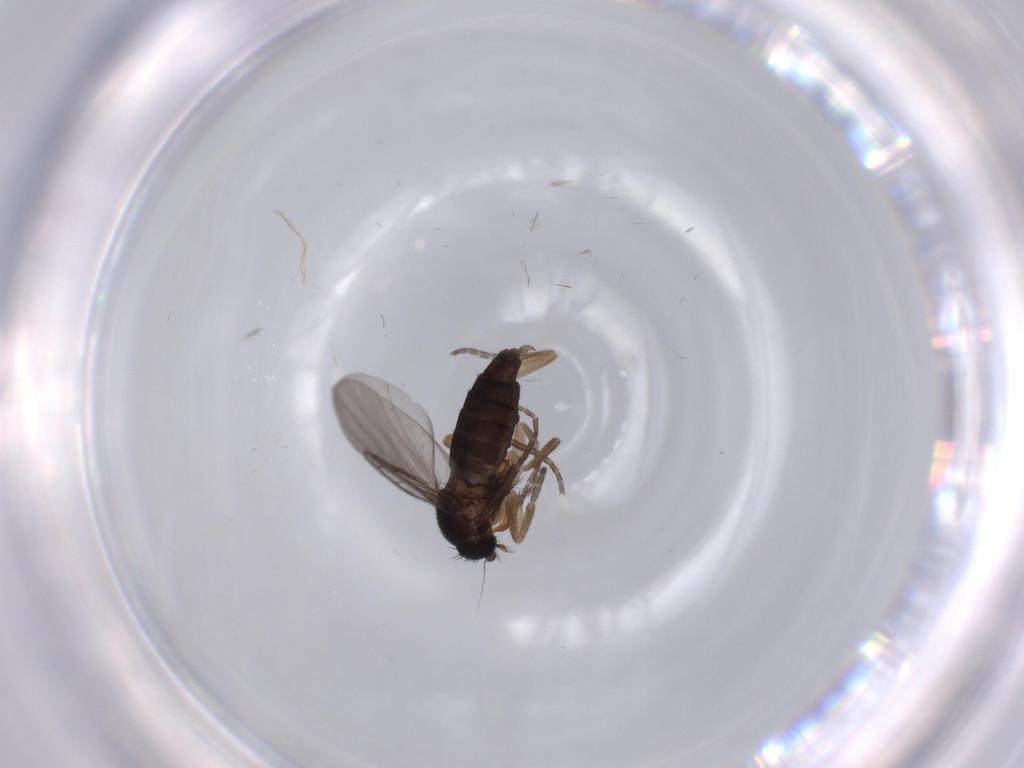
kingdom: Animalia
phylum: Arthropoda
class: Insecta
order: Diptera
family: Phoridae
